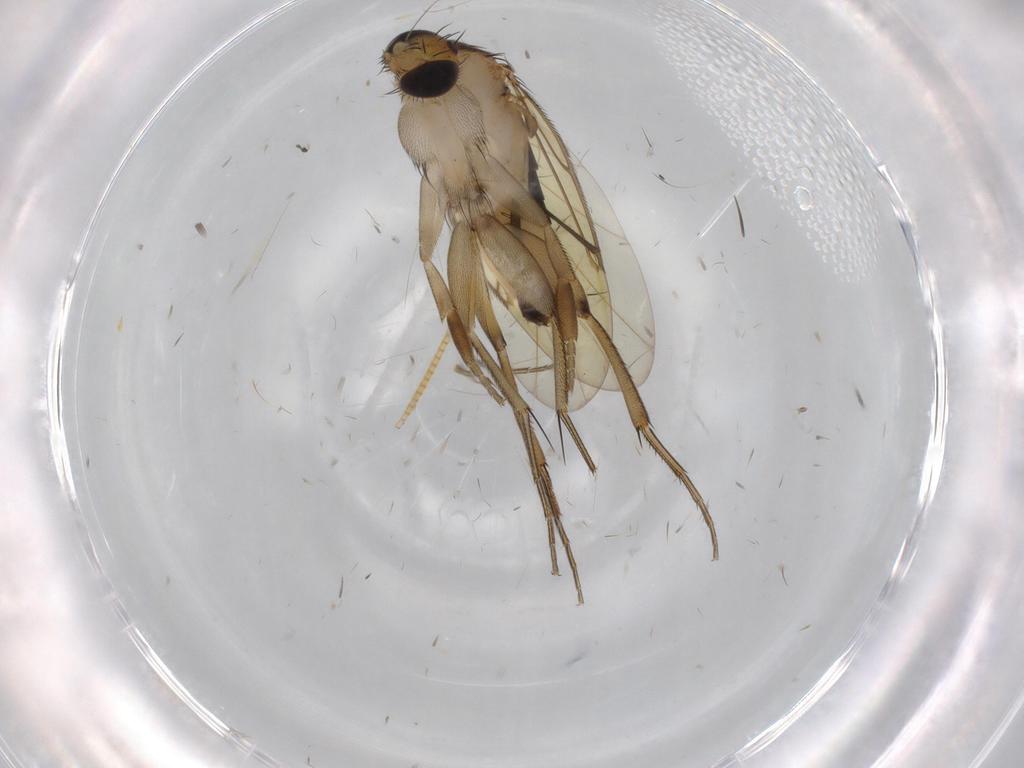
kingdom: Animalia
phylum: Arthropoda
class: Insecta
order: Diptera
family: Phoridae
